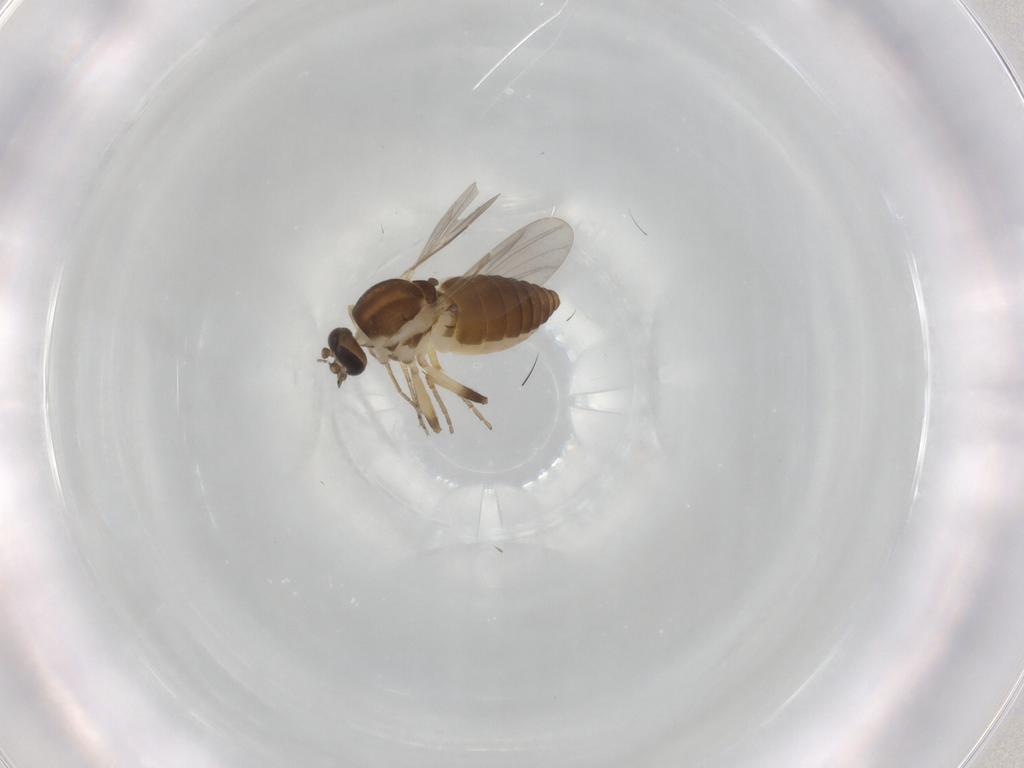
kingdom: Animalia
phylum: Arthropoda
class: Insecta
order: Diptera
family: Ceratopogonidae
